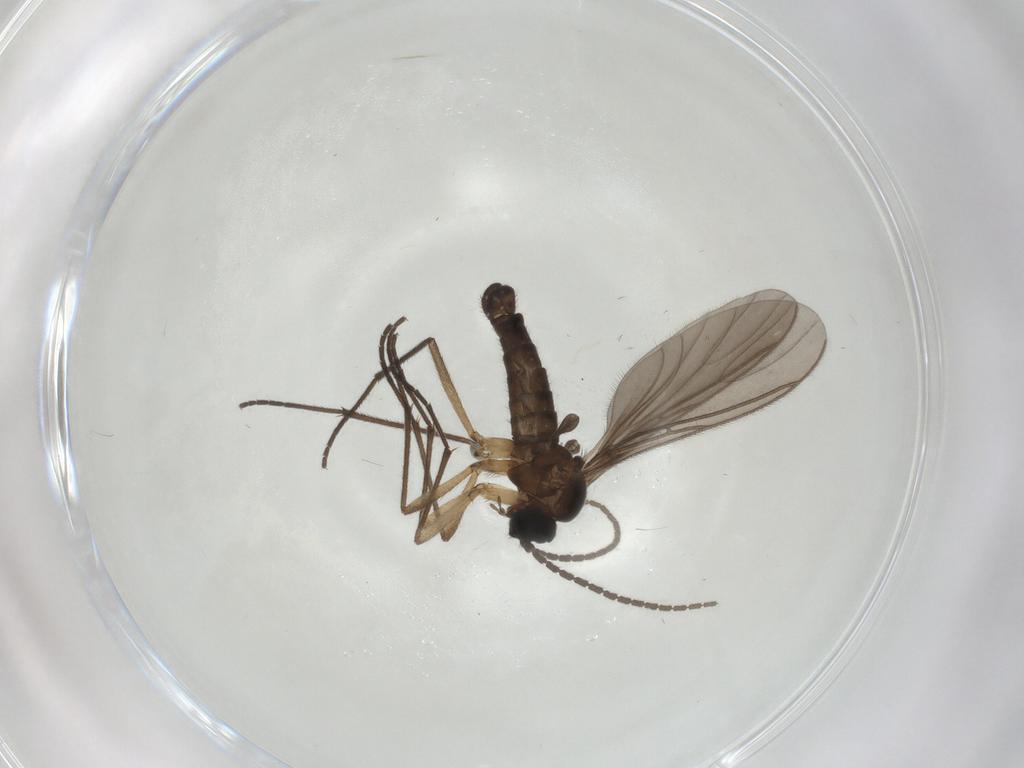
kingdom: Animalia
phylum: Arthropoda
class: Insecta
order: Diptera
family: Sciaridae
